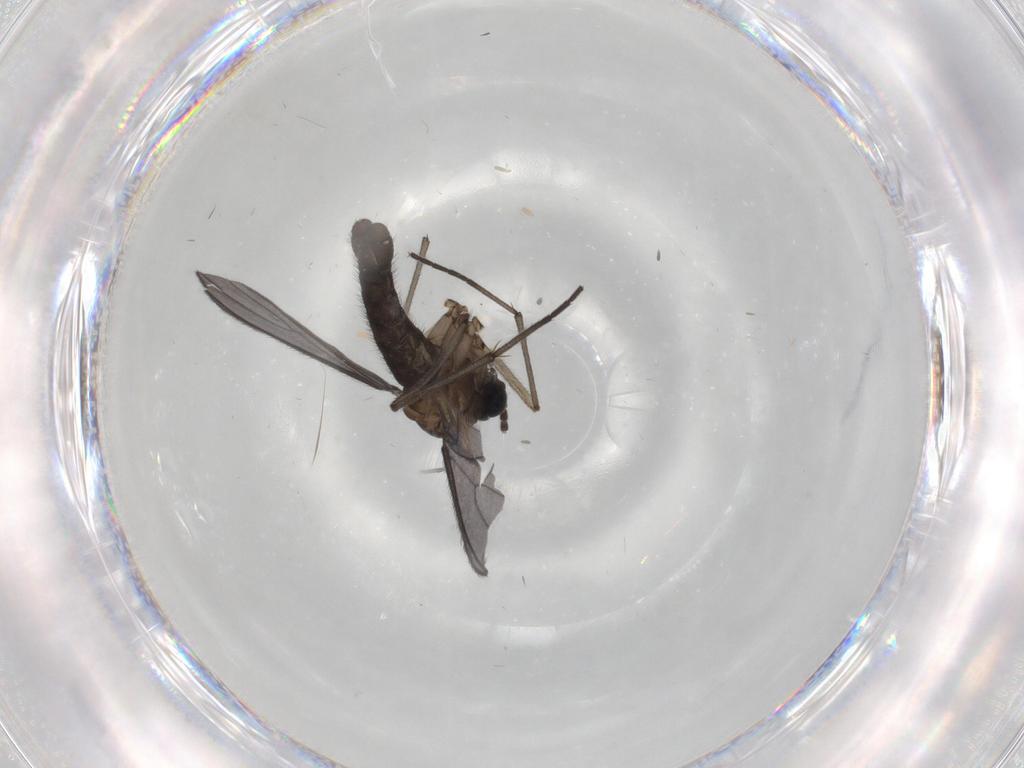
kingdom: Animalia
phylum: Arthropoda
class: Insecta
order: Diptera
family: Sciaridae
